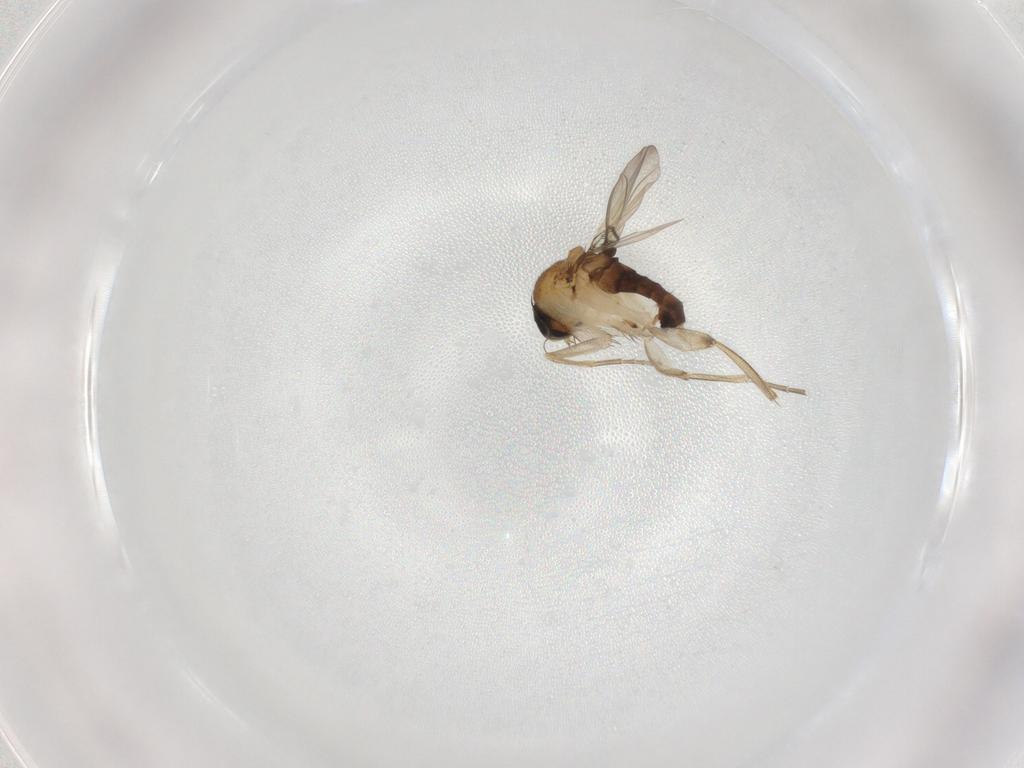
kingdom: Animalia
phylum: Arthropoda
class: Insecta
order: Diptera
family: Phoridae
